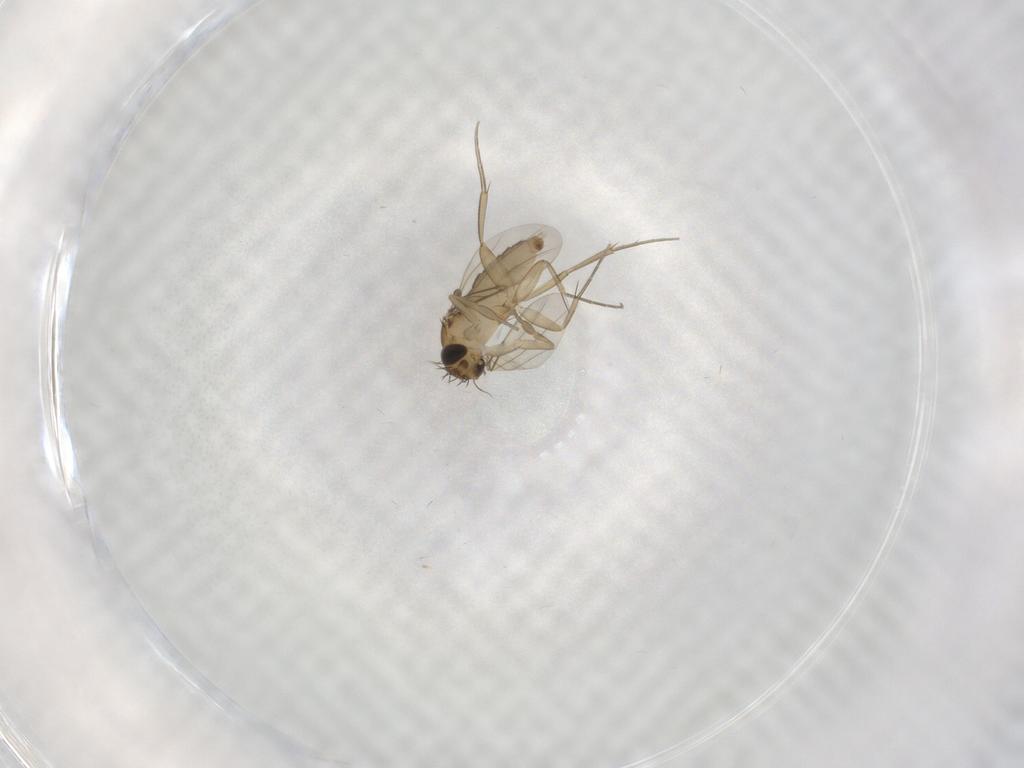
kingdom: Animalia
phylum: Arthropoda
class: Insecta
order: Diptera
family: Phoridae
